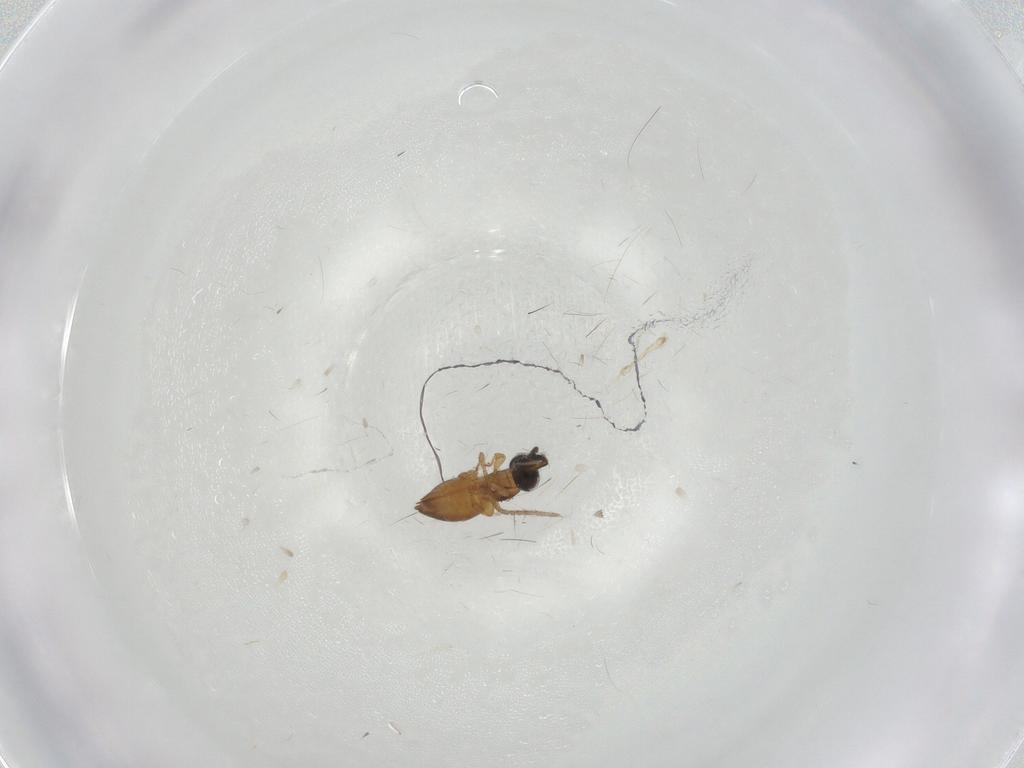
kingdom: Animalia
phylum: Arthropoda
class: Insecta
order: Hymenoptera
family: Ceraphronidae
